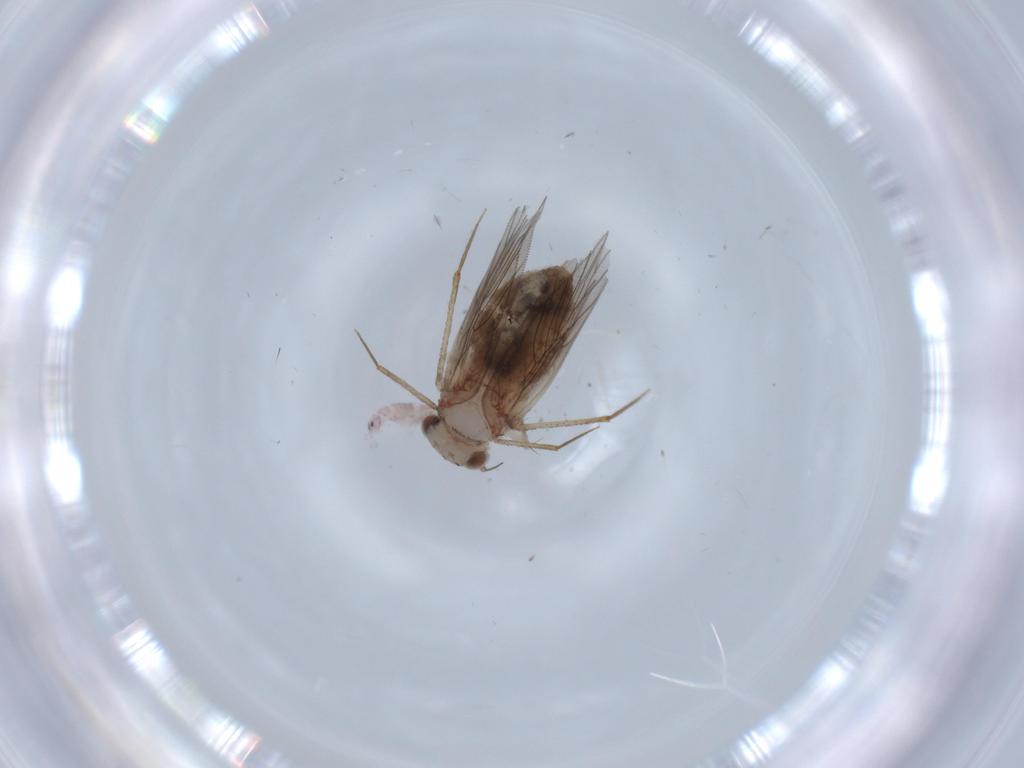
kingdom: Animalia
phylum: Arthropoda
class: Insecta
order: Psocodea
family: Lepidopsocidae
